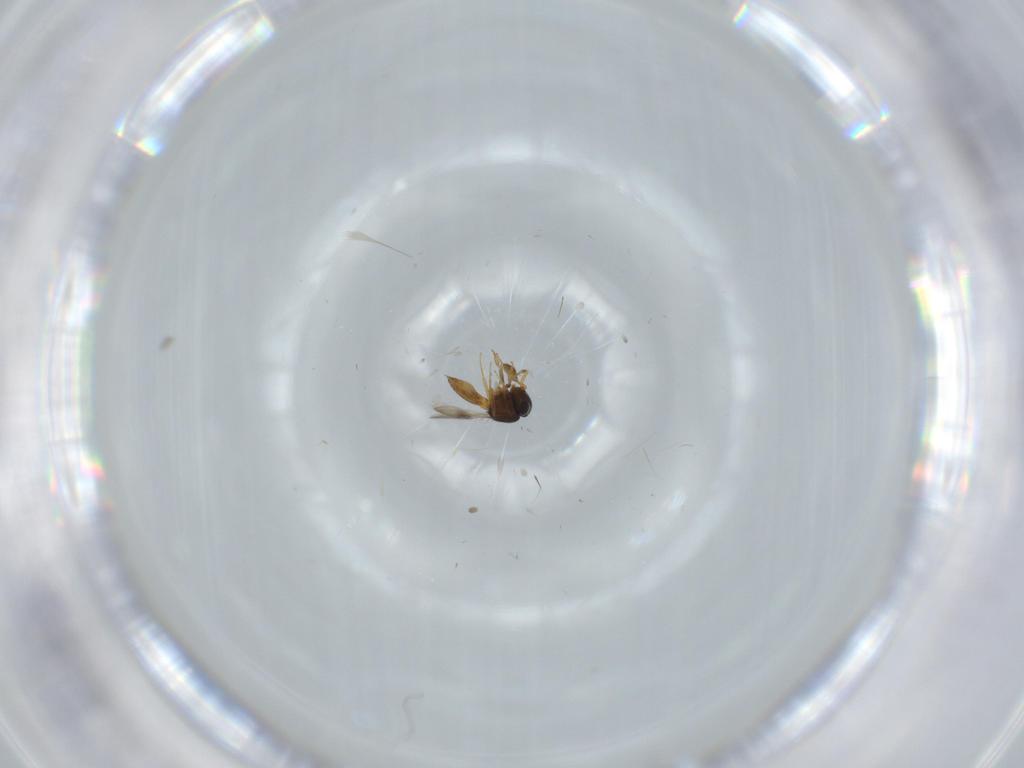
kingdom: Animalia
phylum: Arthropoda
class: Insecta
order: Hymenoptera
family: Scelionidae
